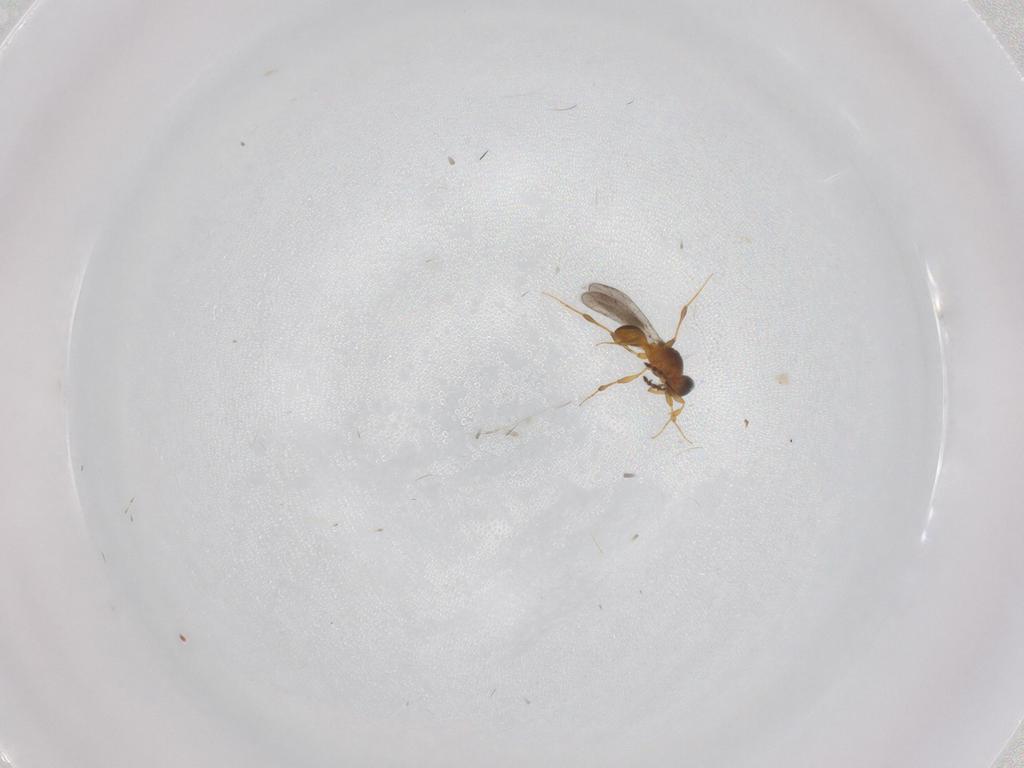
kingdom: Animalia
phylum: Arthropoda
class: Insecta
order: Hymenoptera
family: Platygastridae
